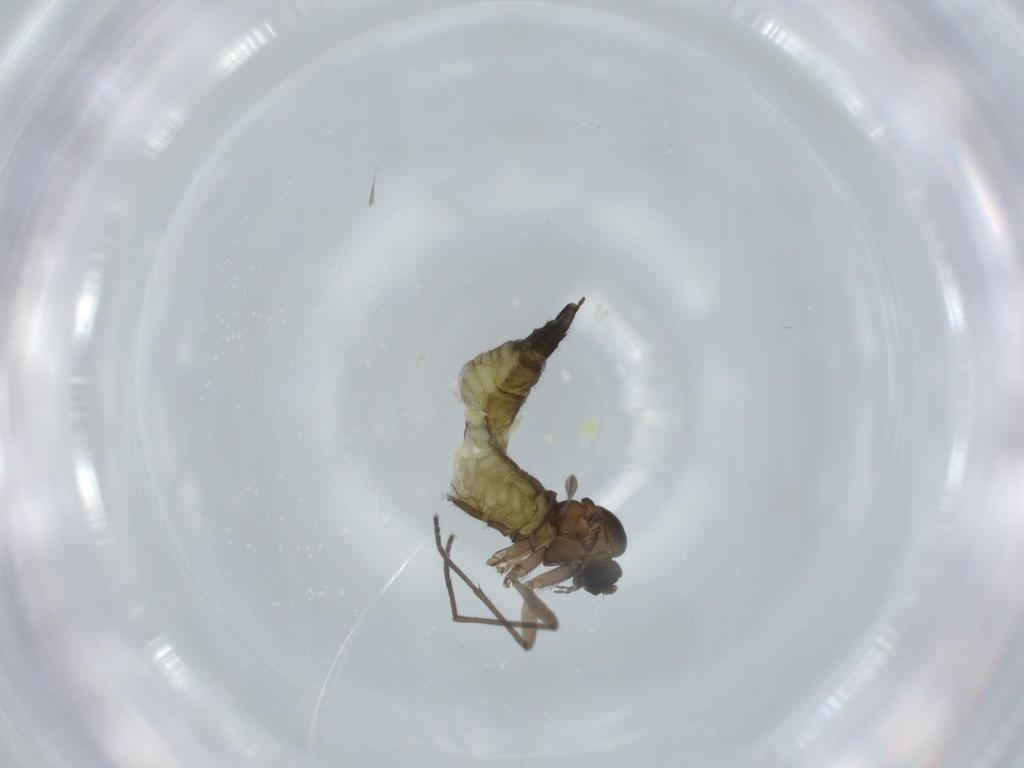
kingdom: Animalia
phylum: Arthropoda
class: Insecta
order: Diptera
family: Sciaridae
